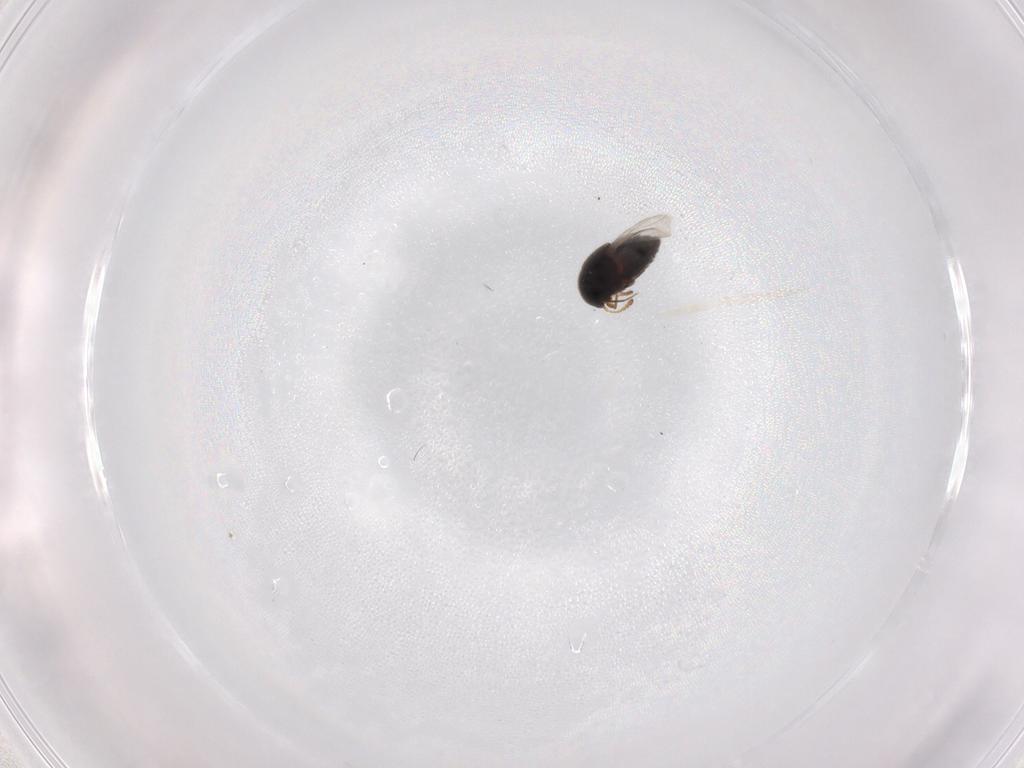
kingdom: Animalia
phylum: Arthropoda
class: Insecta
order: Coleoptera
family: Staphylinidae
